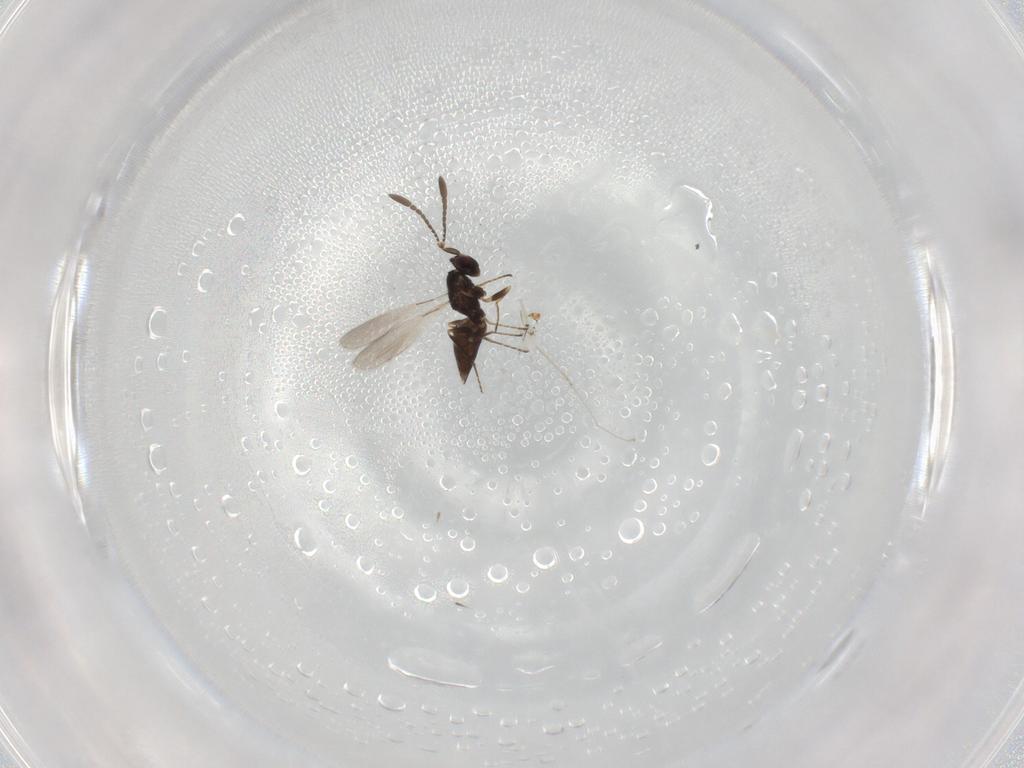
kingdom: Animalia
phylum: Arthropoda
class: Insecta
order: Hymenoptera
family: Mymaridae
